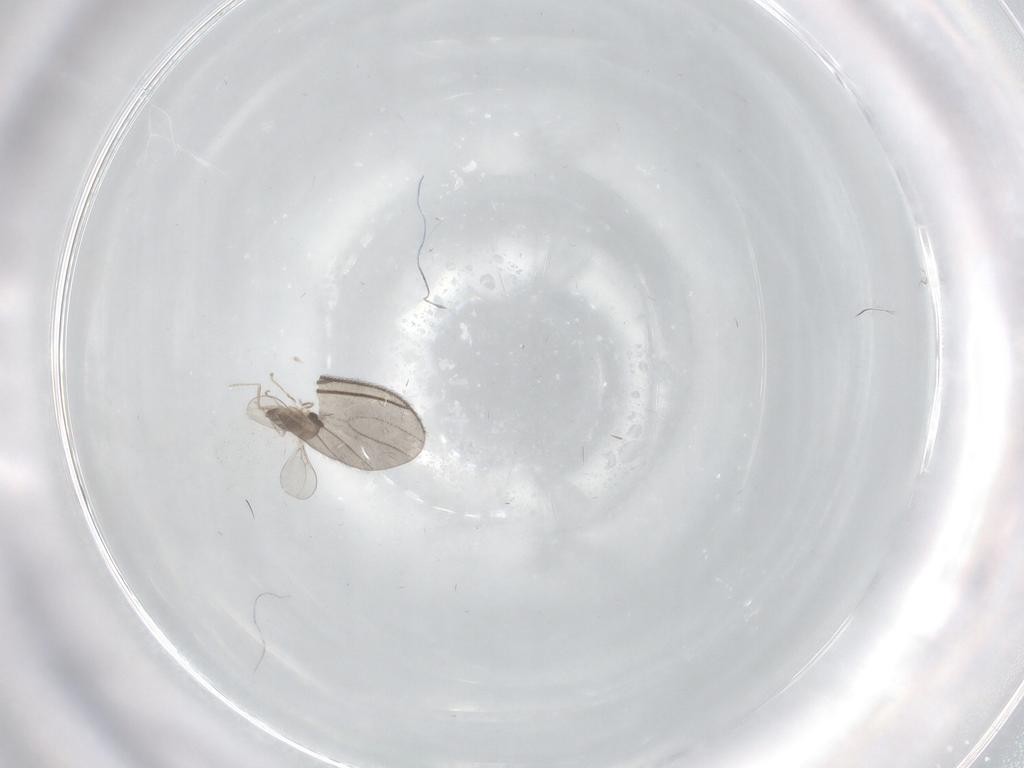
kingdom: Animalia
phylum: Arthropoda
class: Insecta
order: Diptera
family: Cecidomyiidae
